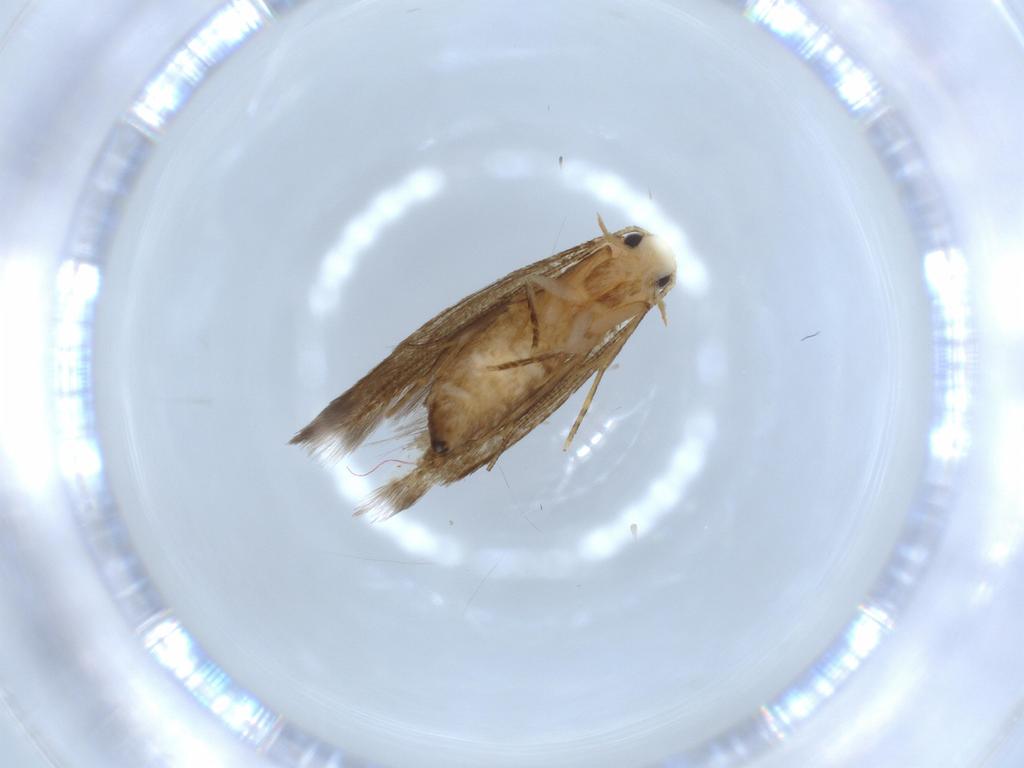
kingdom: Animalia
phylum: Arthropoda
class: Insecta
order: Lepidoptera
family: Tineidae
